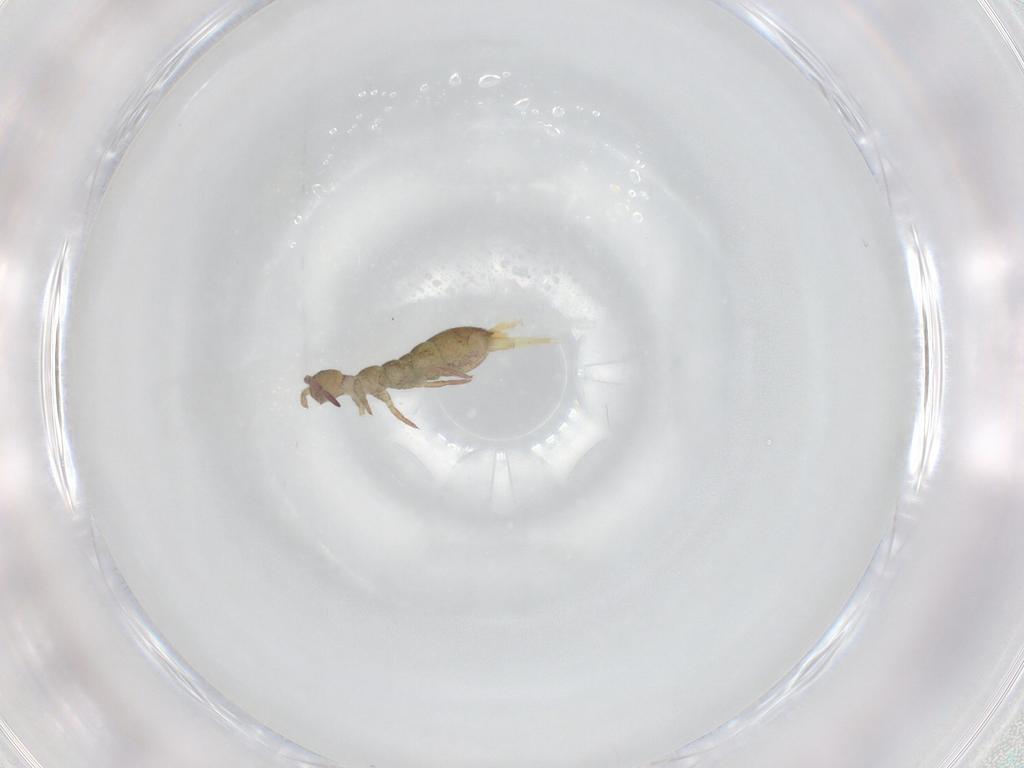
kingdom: Animalia
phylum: Arthropoda
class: Collembola
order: Entomobryomorpha
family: Isotomidae
